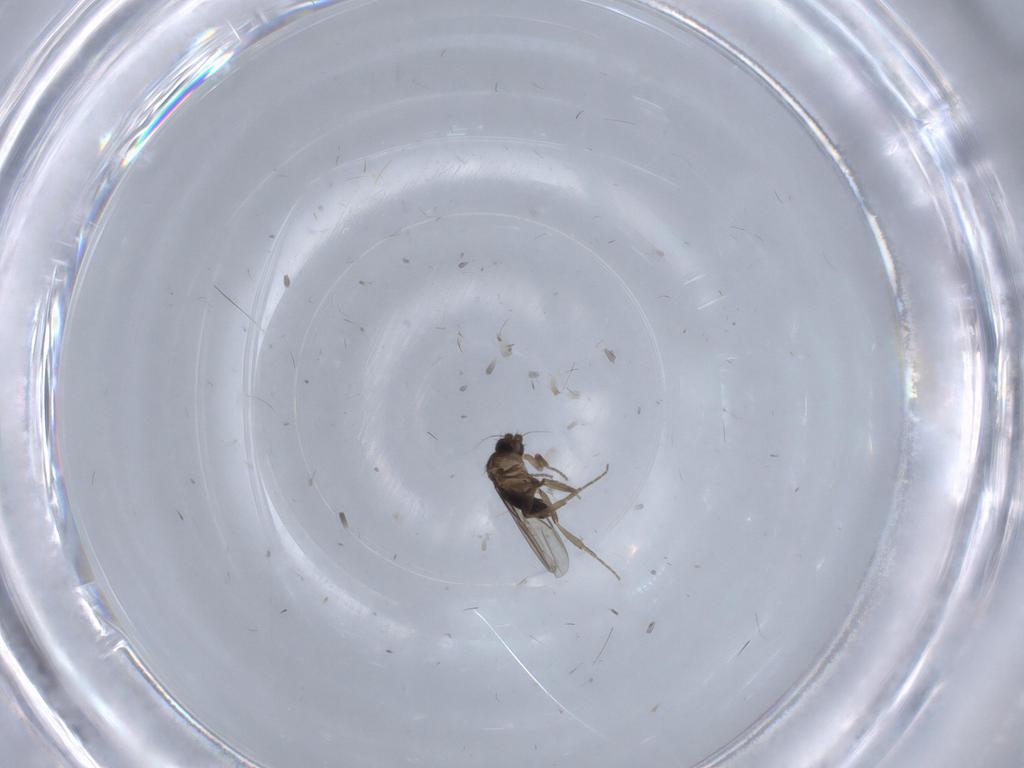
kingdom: Animalia
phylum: Arthropoda
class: Insecta
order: Diptera
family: Phoridae
